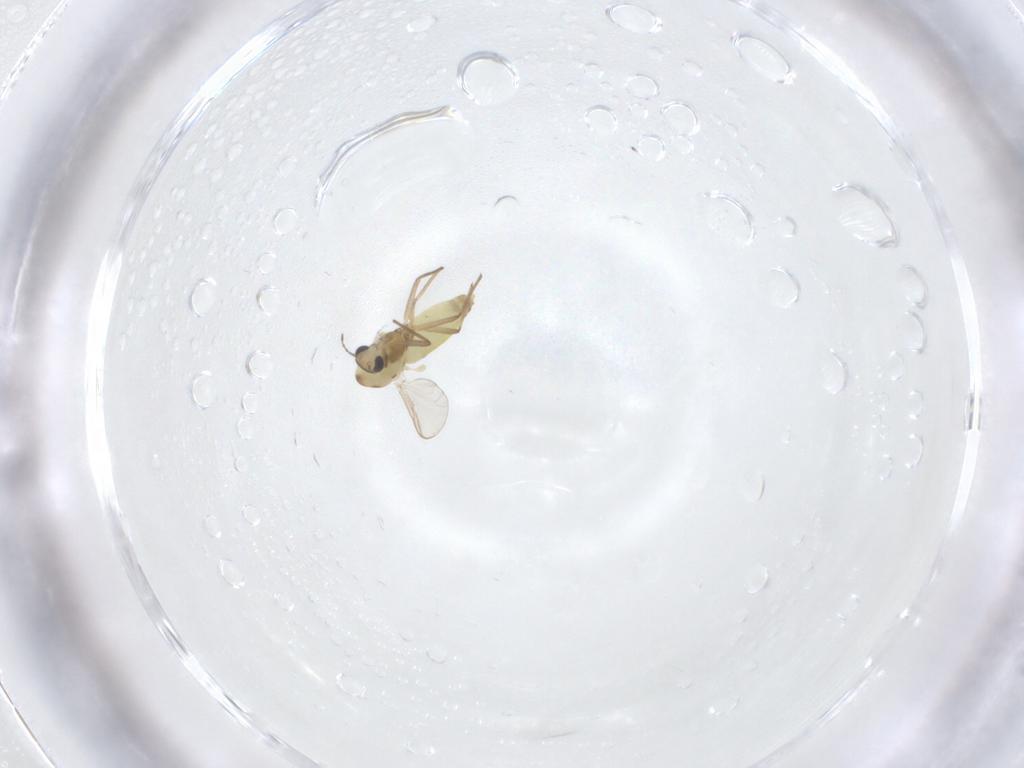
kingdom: Animalia
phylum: Arthropoda
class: Insecta
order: Diptera
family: Chironomidae
